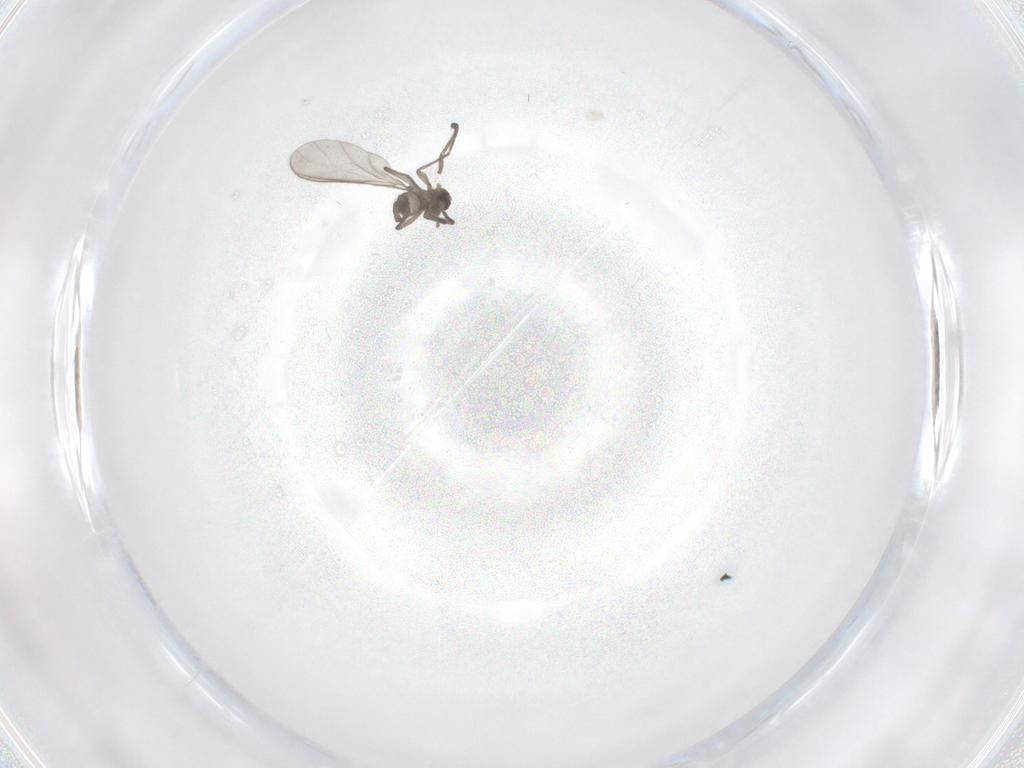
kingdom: Animalia
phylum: Arthropoda
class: Insecta
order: Diptera
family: Sciaridae
